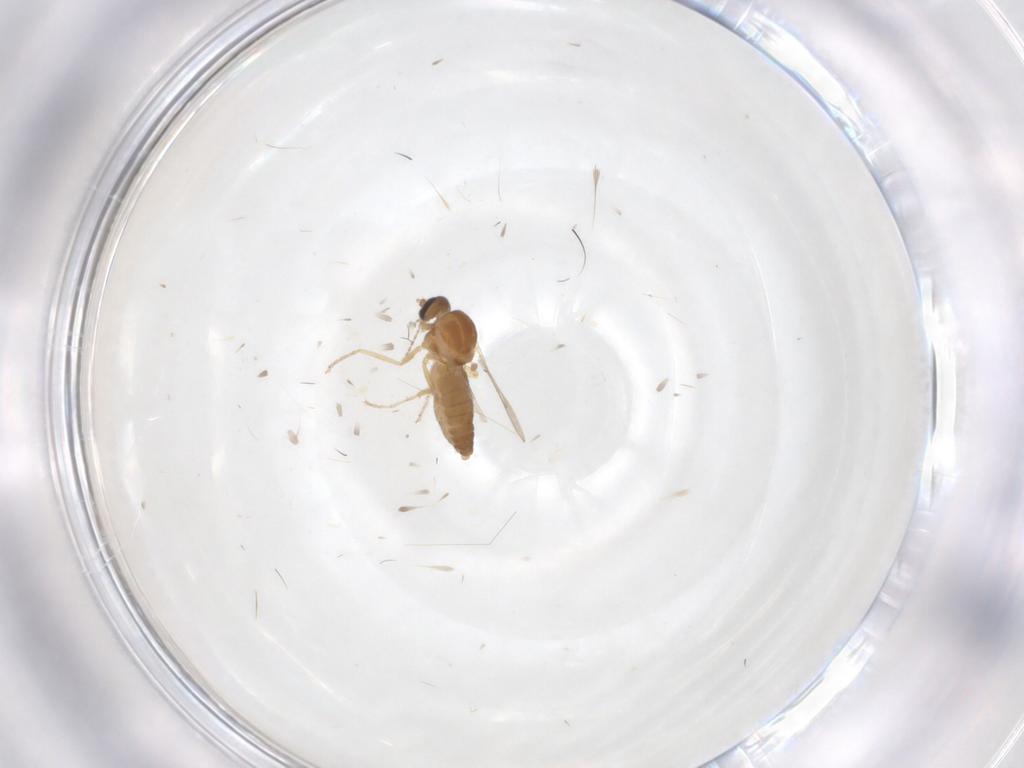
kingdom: Animalia
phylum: Arthropoda
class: Insecta
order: Diptera
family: Ceratopogonidae
